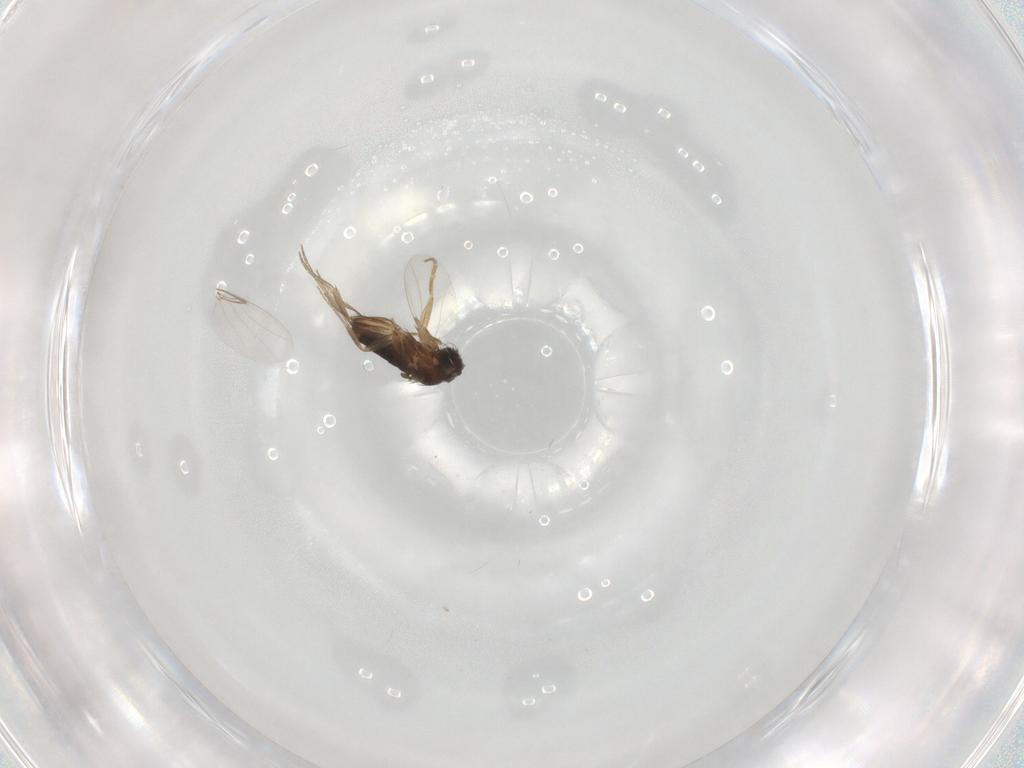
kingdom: Animalia
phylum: Arthropoda
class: Insecta
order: Diptera
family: Phoridae
